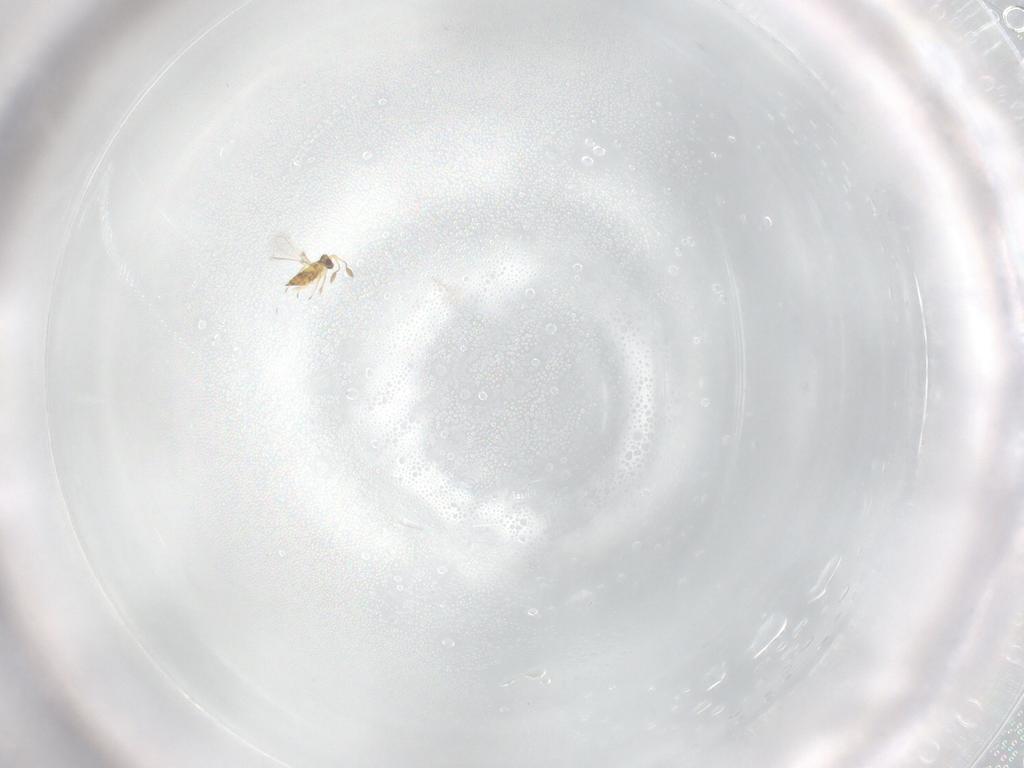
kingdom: Animalia
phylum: Arthropoda
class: Insecta
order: Hymenoptera
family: Mymaridae
